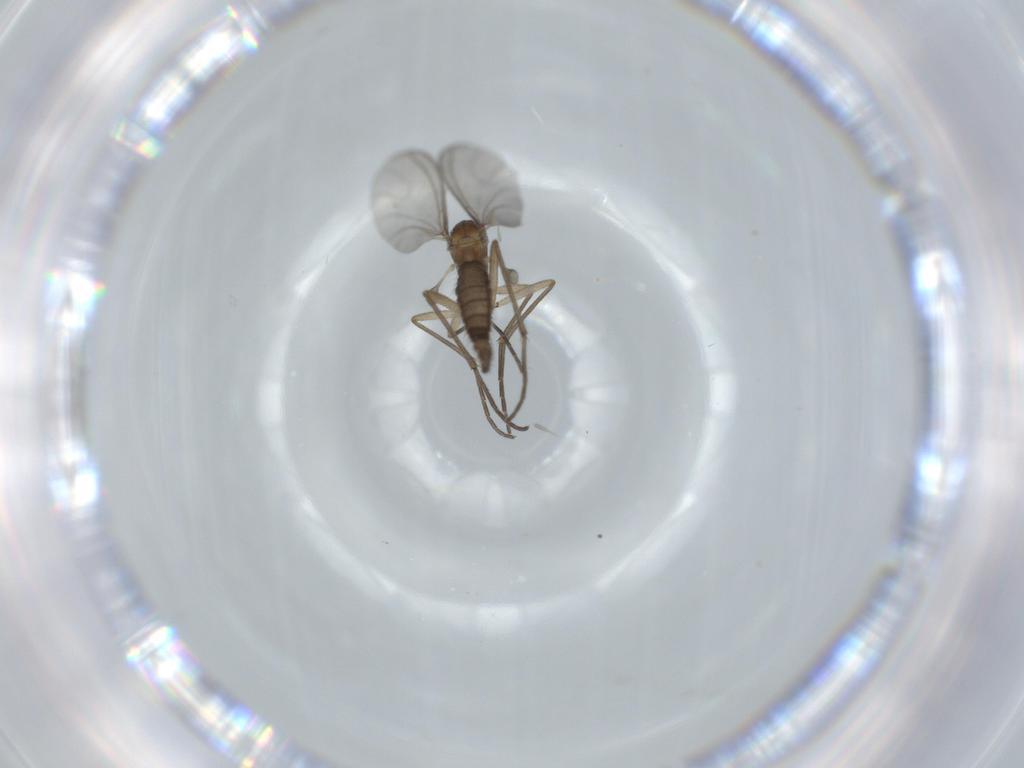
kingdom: Animalia
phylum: Arthropoda
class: Insecta
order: Diptera
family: Sciaridae
